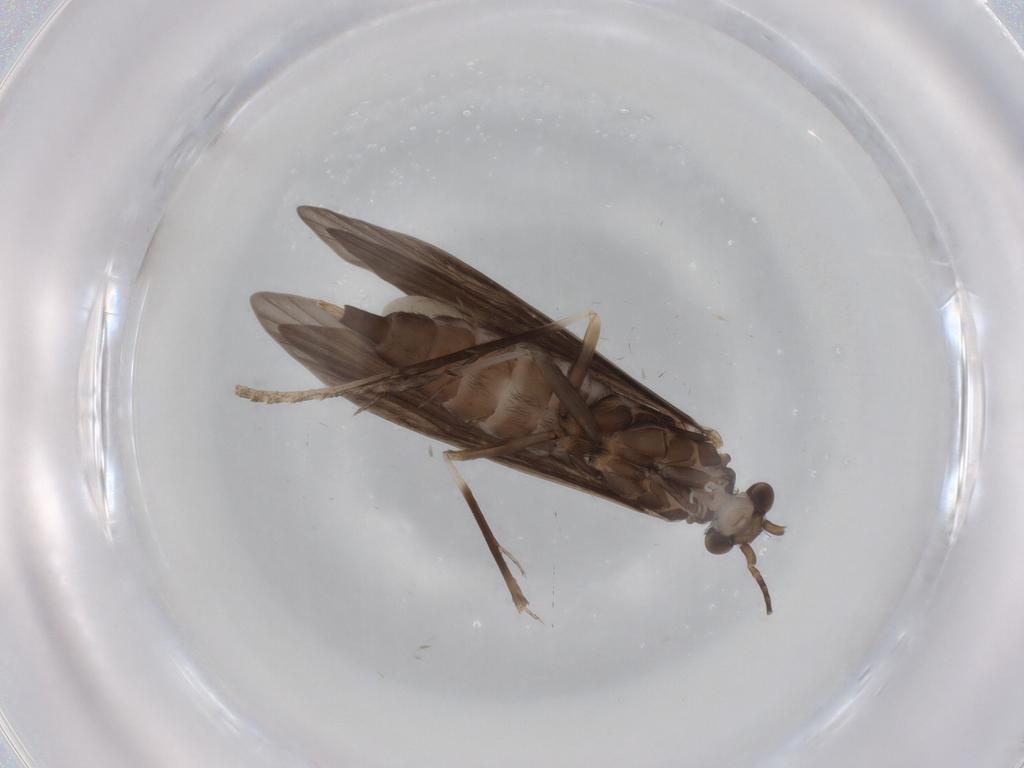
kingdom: Animalia
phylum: Arthropoda
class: Insecta
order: Trichoptera
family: Xiphocentronidae
